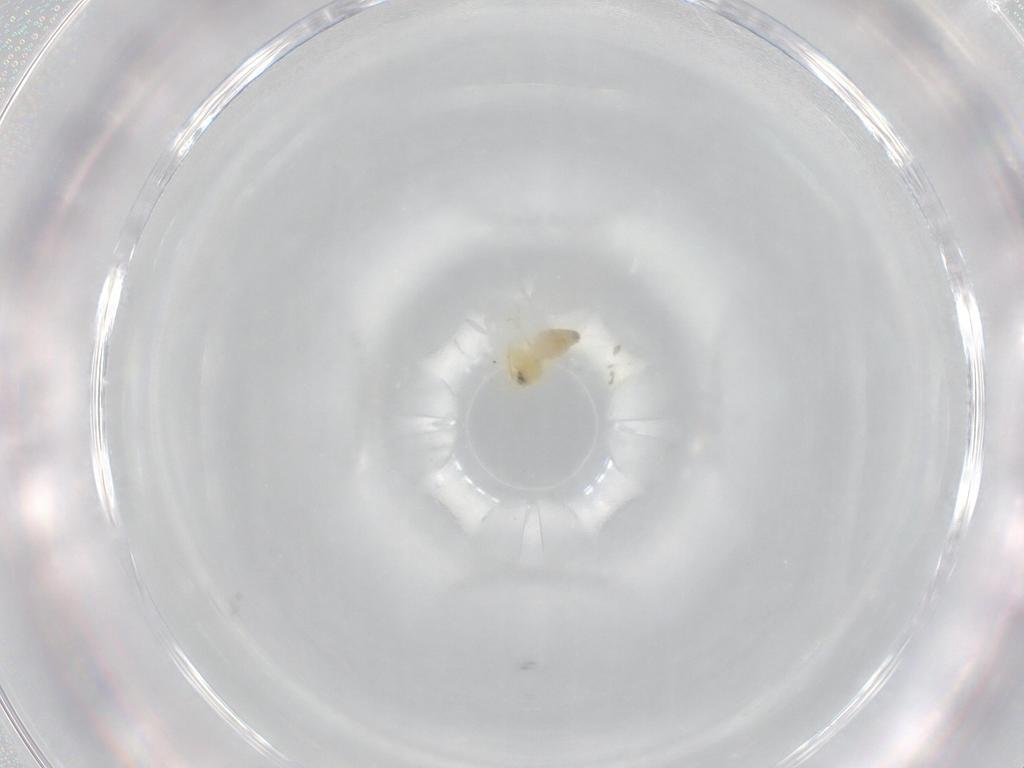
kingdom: Animalia
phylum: Arthropoda
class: Insecta
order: Hemiptera
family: Aleyrodidae
